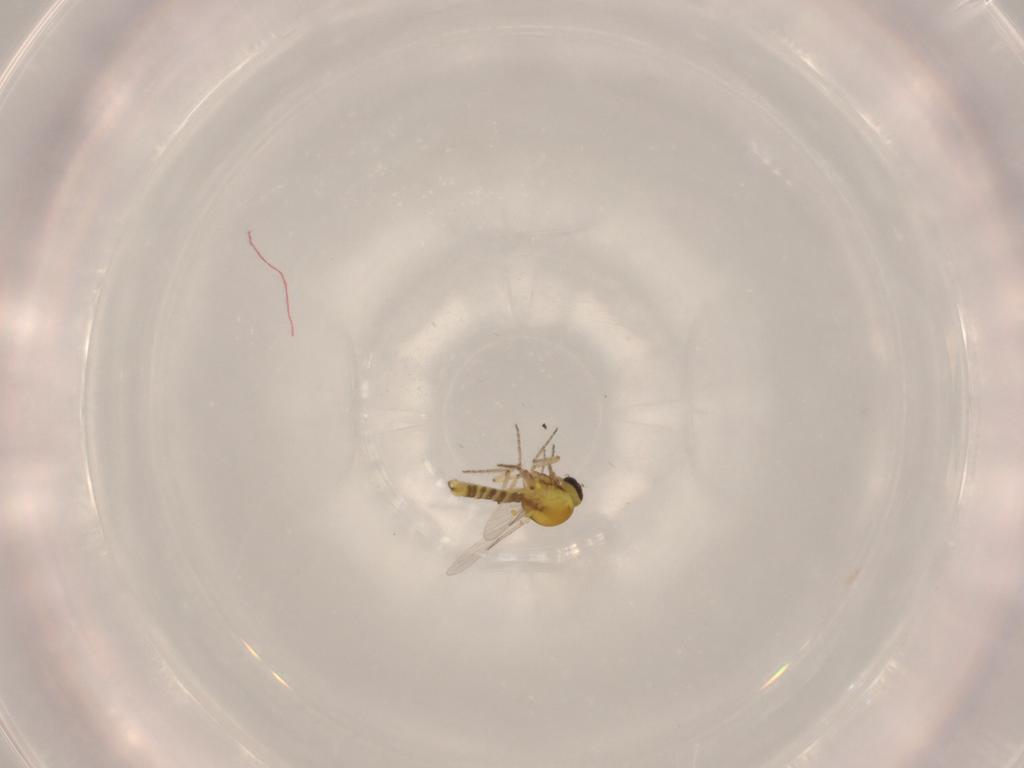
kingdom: Animalia
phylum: Arthropoda
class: Insecta
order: Diptera
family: Cecidomyiidae
